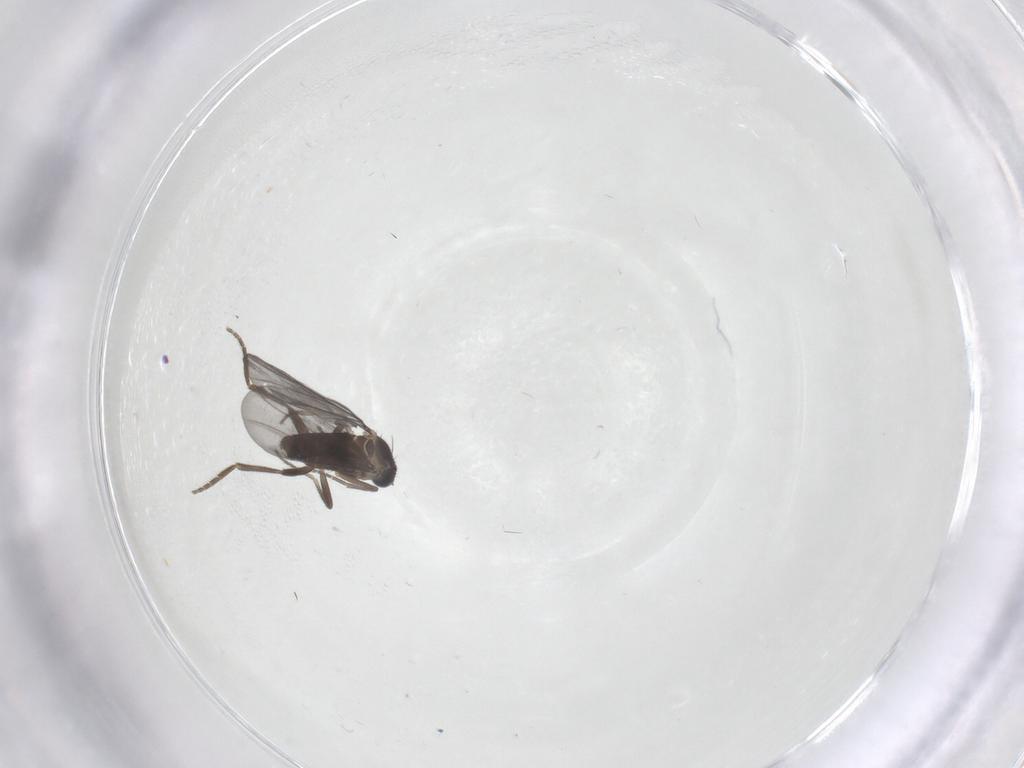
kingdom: Animalia
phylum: Arthropoda
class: Insecta
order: Diptera
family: Phoridae
